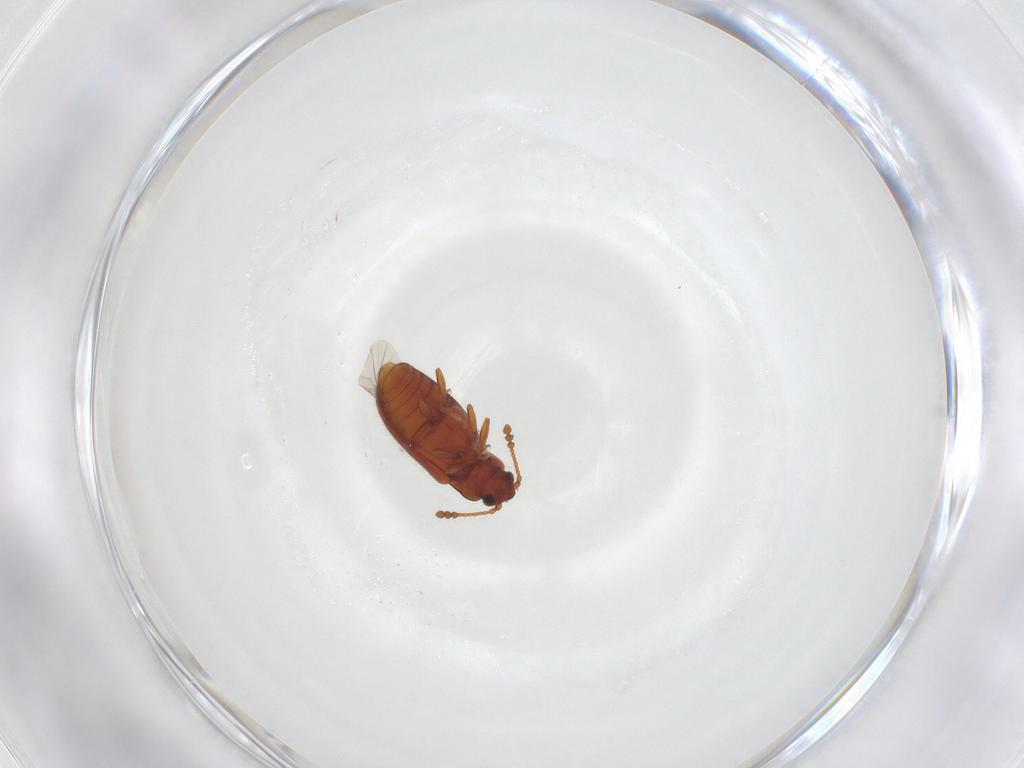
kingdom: Animalia
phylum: Arthropoda
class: Insecta
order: Coleoptera
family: Cryptophagidae
